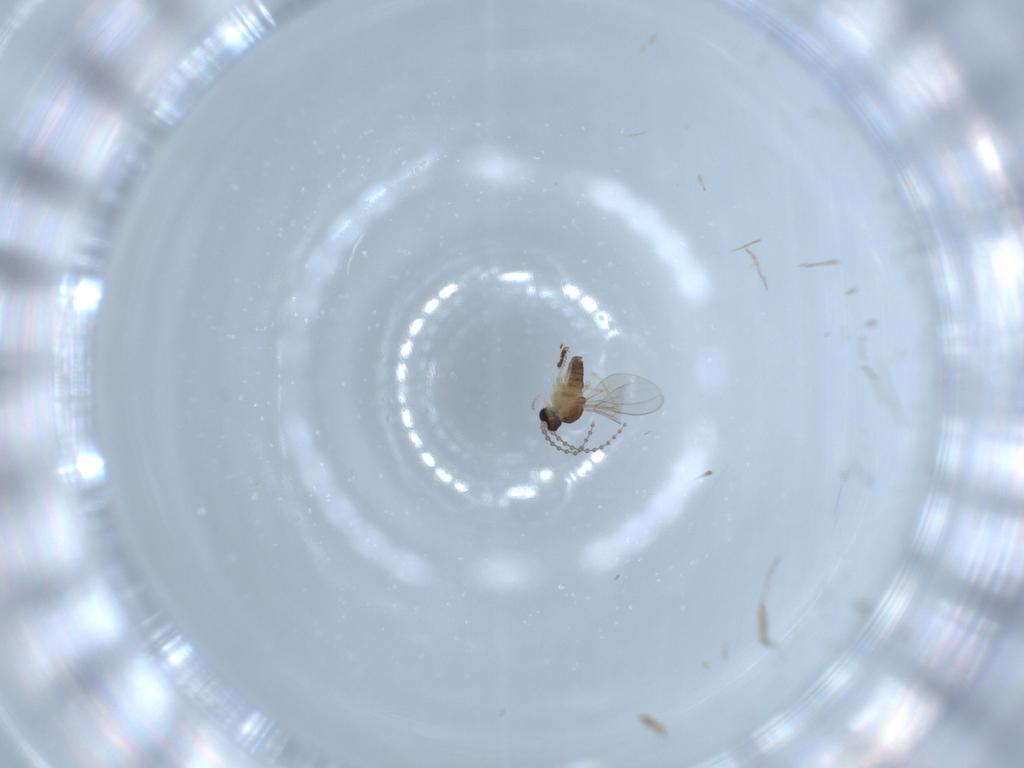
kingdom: Animalia
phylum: Arthropoda
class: Insecta
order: Diptera
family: Cecidomyiidae
